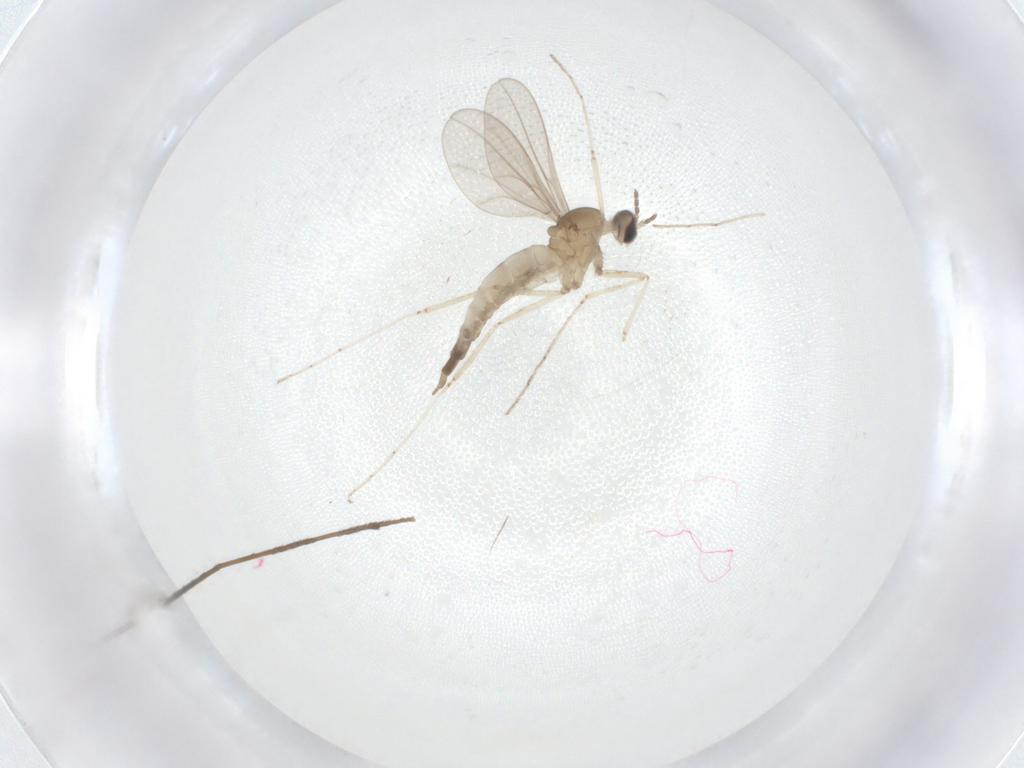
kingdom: Animalia
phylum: Arthropoda
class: Insecta
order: Diptera
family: Limoniidae
